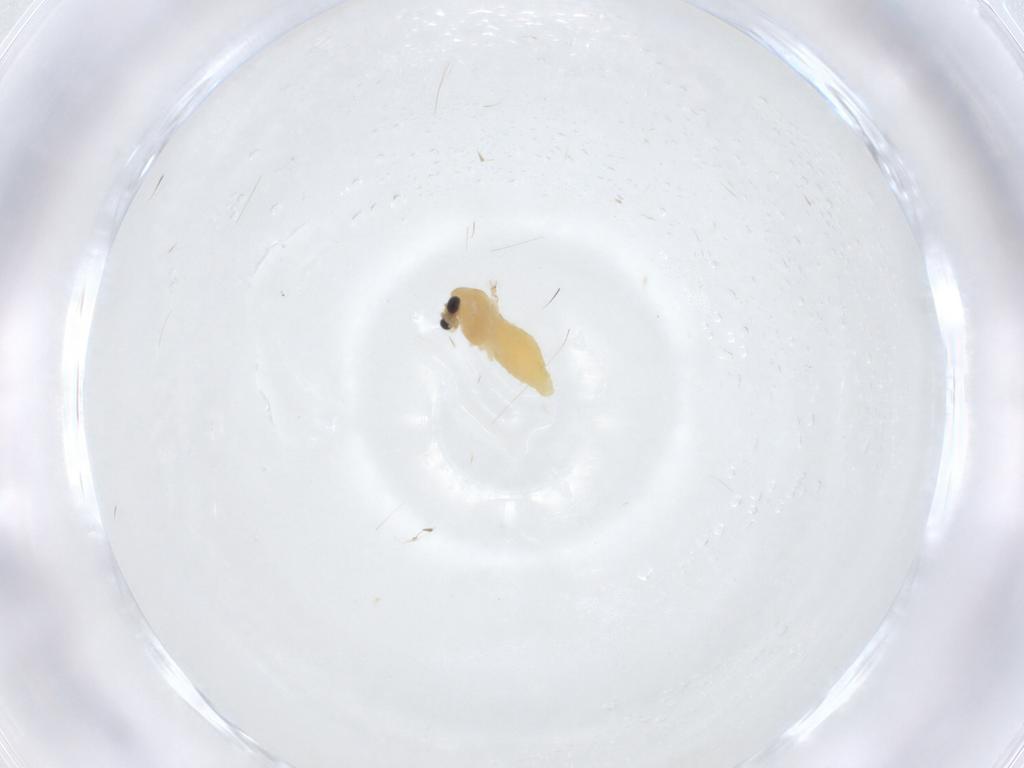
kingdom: Animalia
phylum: Arthropoda
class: Insecta
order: Diptera
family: Chironomidae
